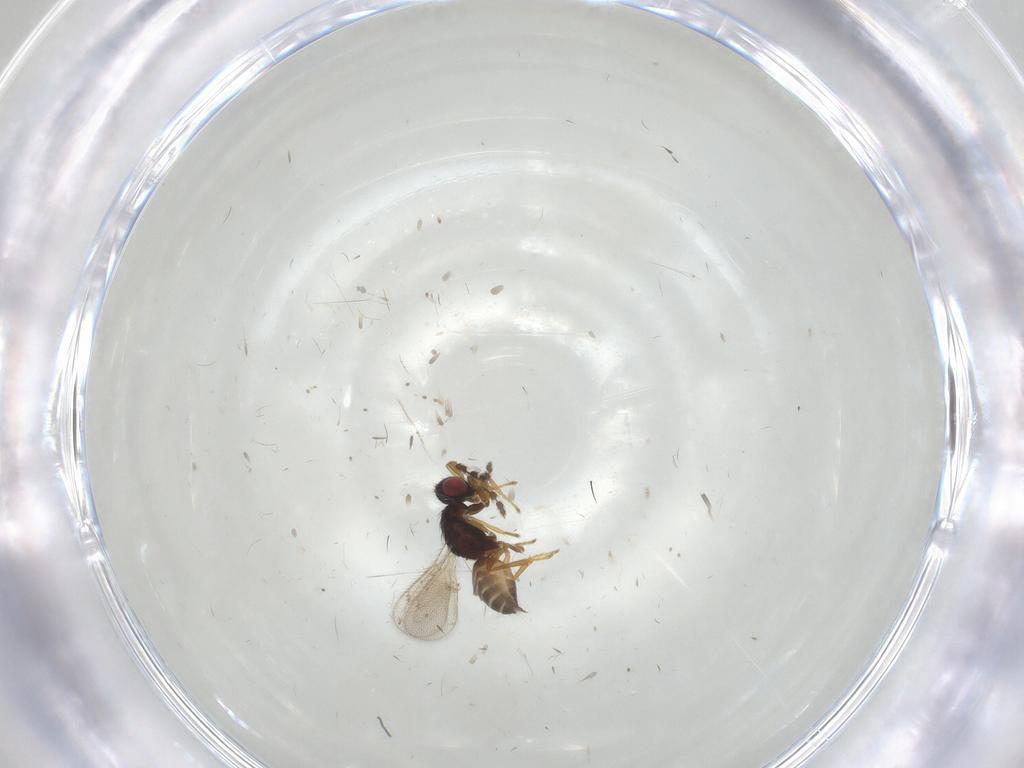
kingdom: Animalia
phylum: Arthropoda
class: Insecta
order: Hymenoptera
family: Eulophidae
